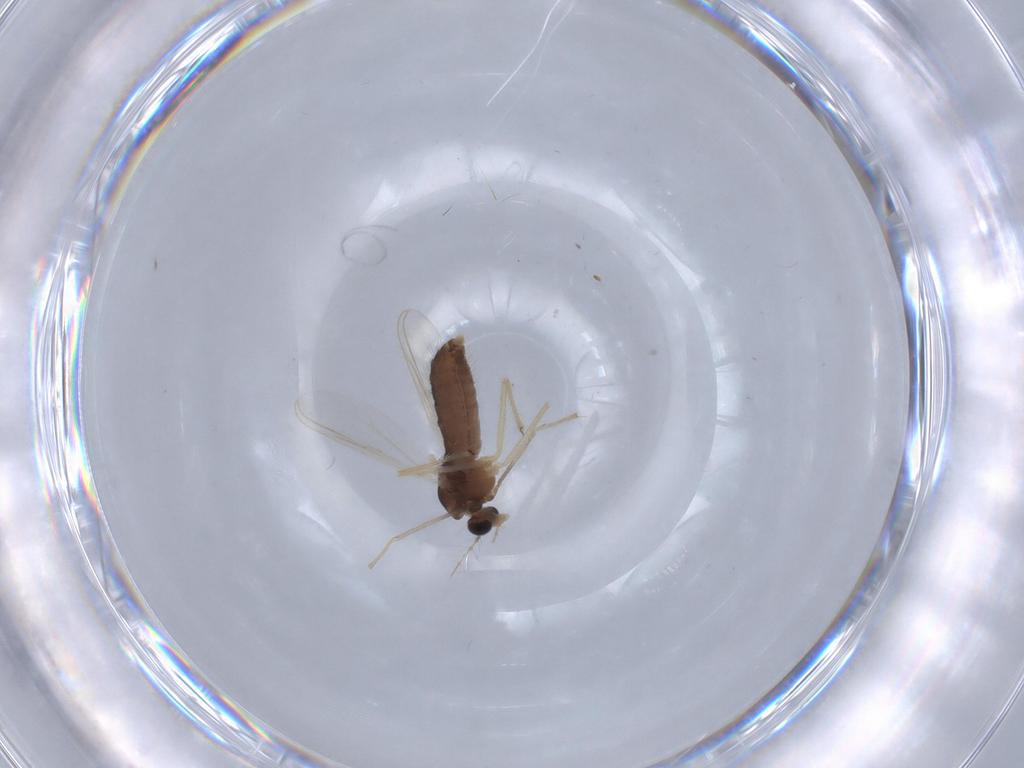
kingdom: Animalia
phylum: Arthropoda
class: Insecta
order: Diptera
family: Chironomidae
